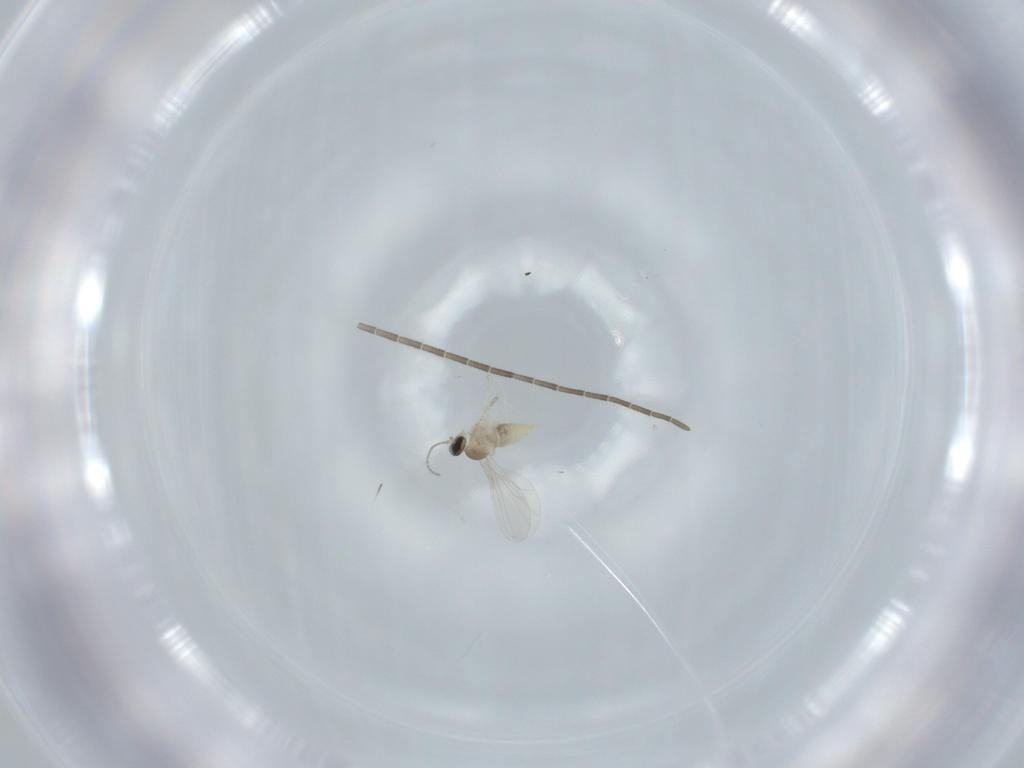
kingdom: Animalia
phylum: Arthropoda
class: Insecta
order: Diptera
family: Cecidomyiidae
